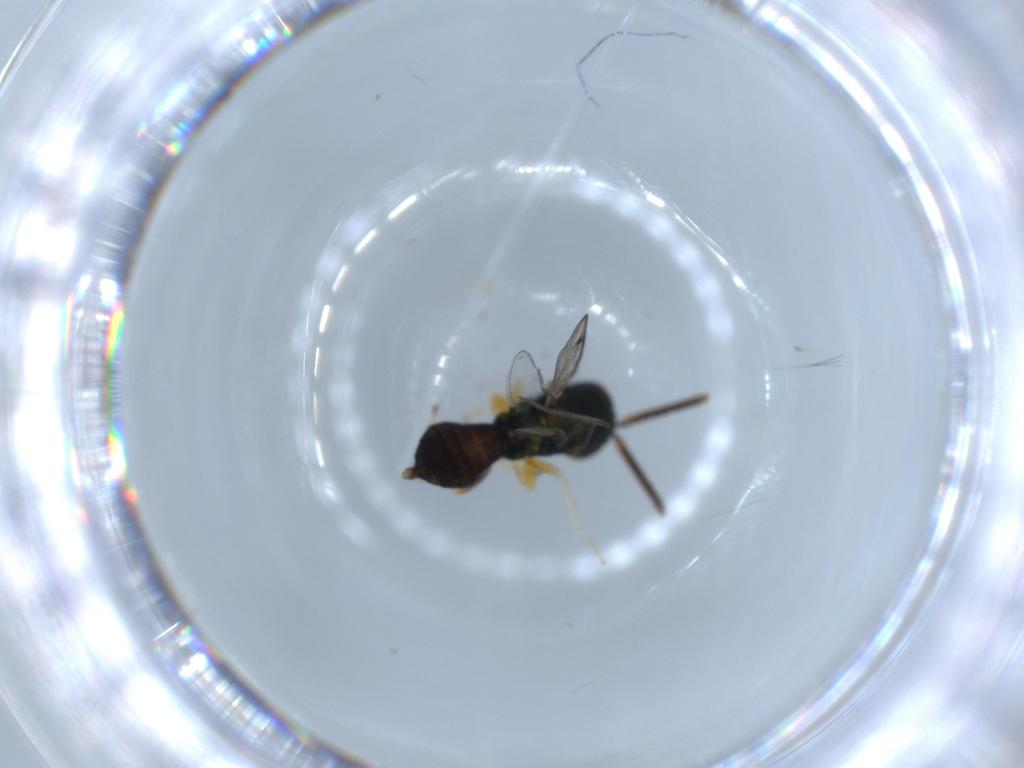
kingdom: Animalia
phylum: Arthropoda
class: Insecta
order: Hymenoptera
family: Pteromalidae
